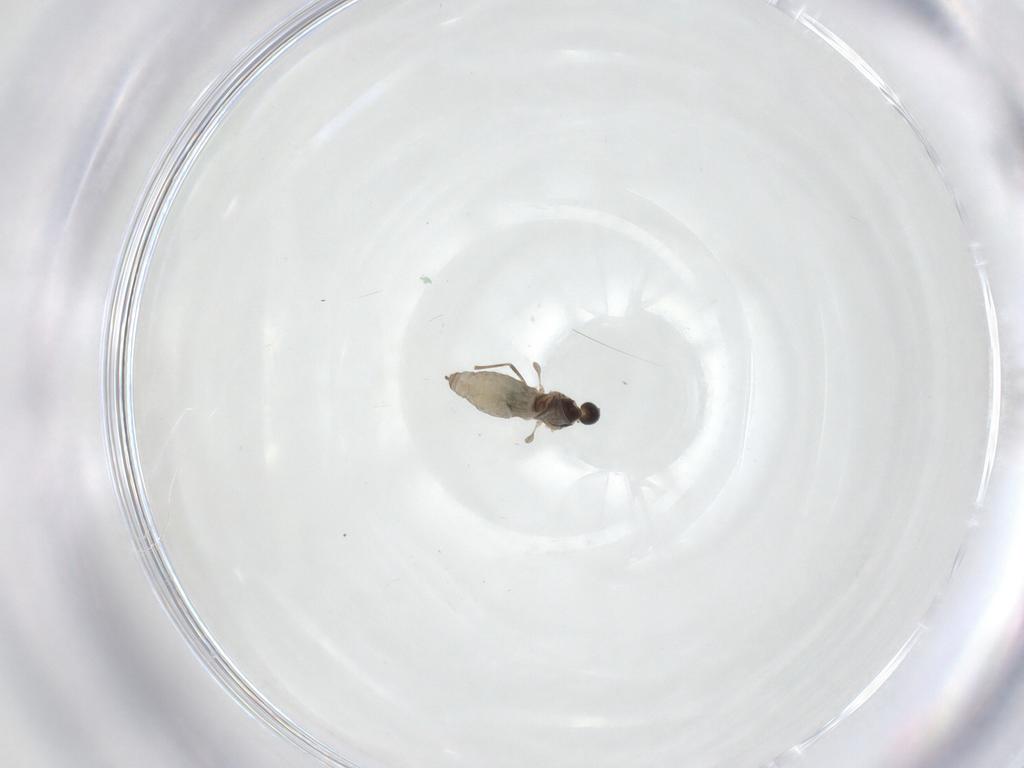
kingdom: Animalia
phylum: Arthropoda
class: Insecta
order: Diptera
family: Cecidomyiidae
